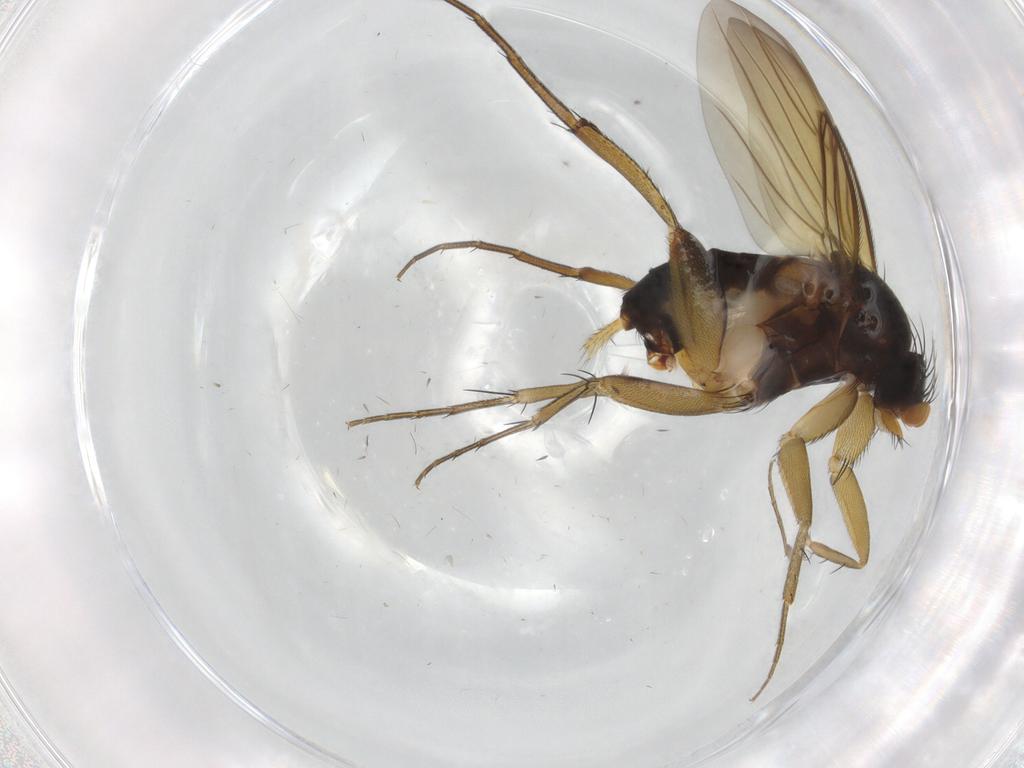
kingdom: Animalia
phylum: Arthropoda
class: Insecta
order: Diptera
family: Phoridae
